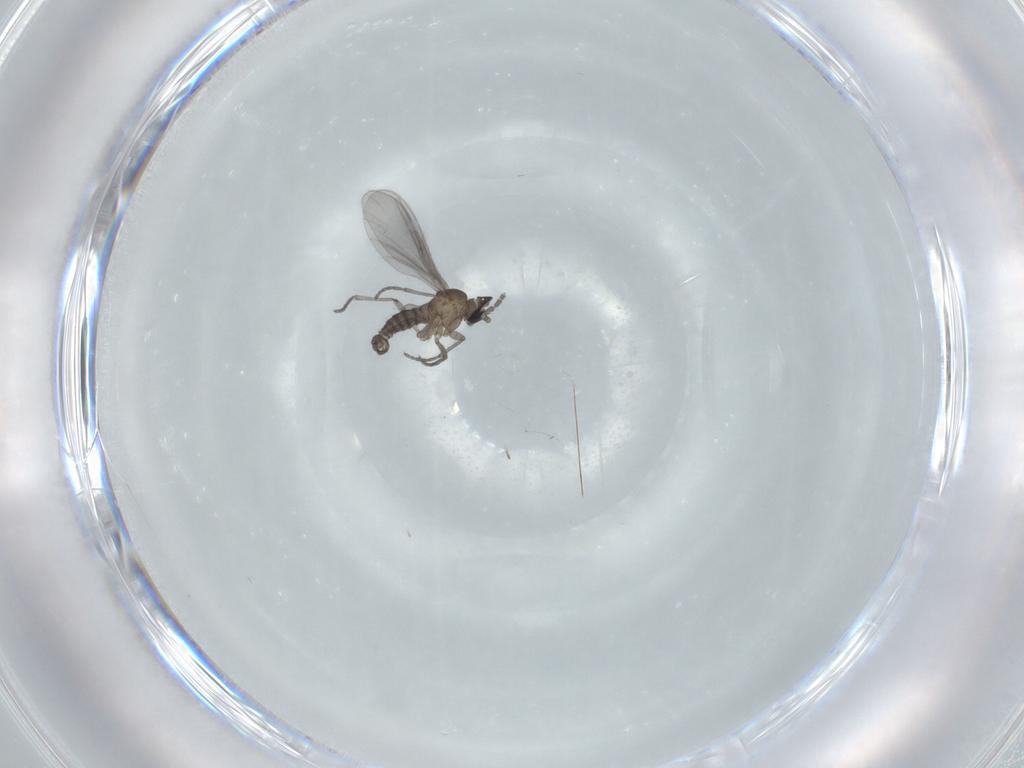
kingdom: Animalia
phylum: Arthropoda
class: Insecta
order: Diptera
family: Sciaridae
